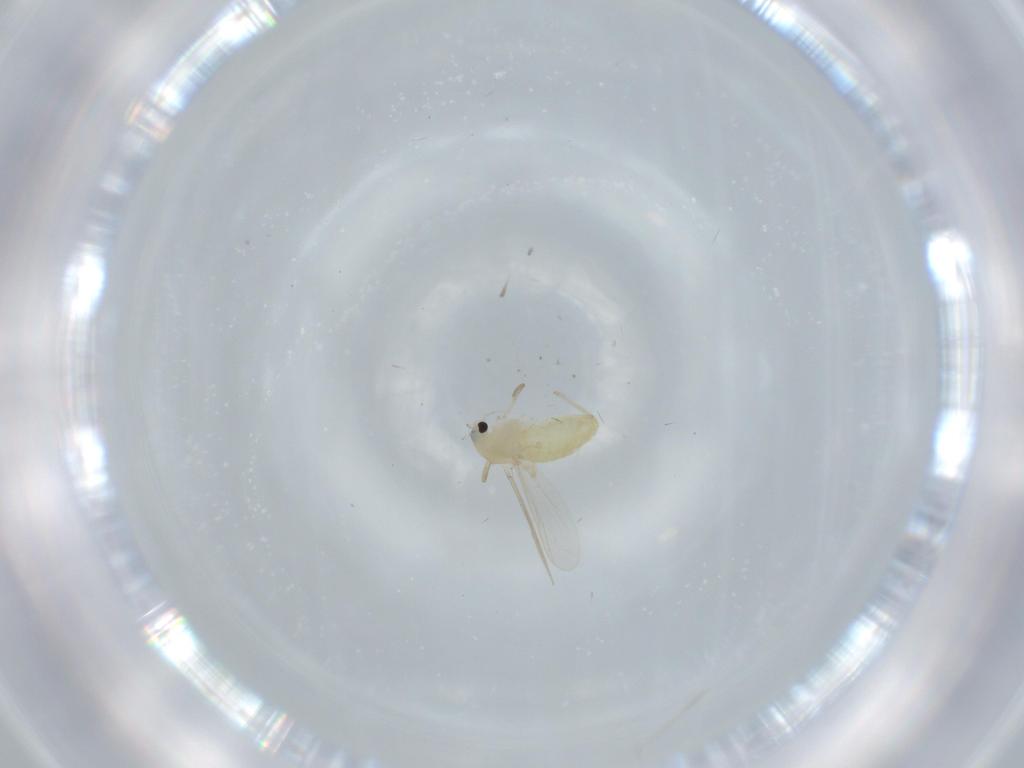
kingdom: Animalia
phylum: Arthropoda
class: Insecta
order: Diptera
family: Chironomidae
